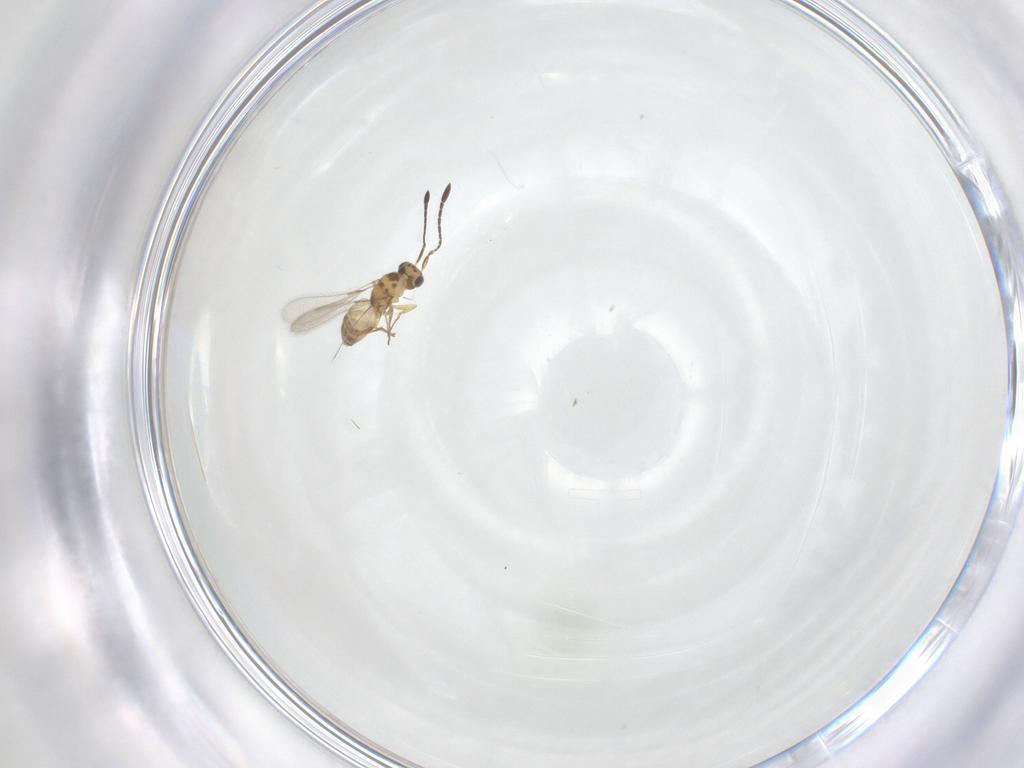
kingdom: Animalia
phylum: Arthropoda
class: Insecta
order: Hymenoptera
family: Mymaridae
